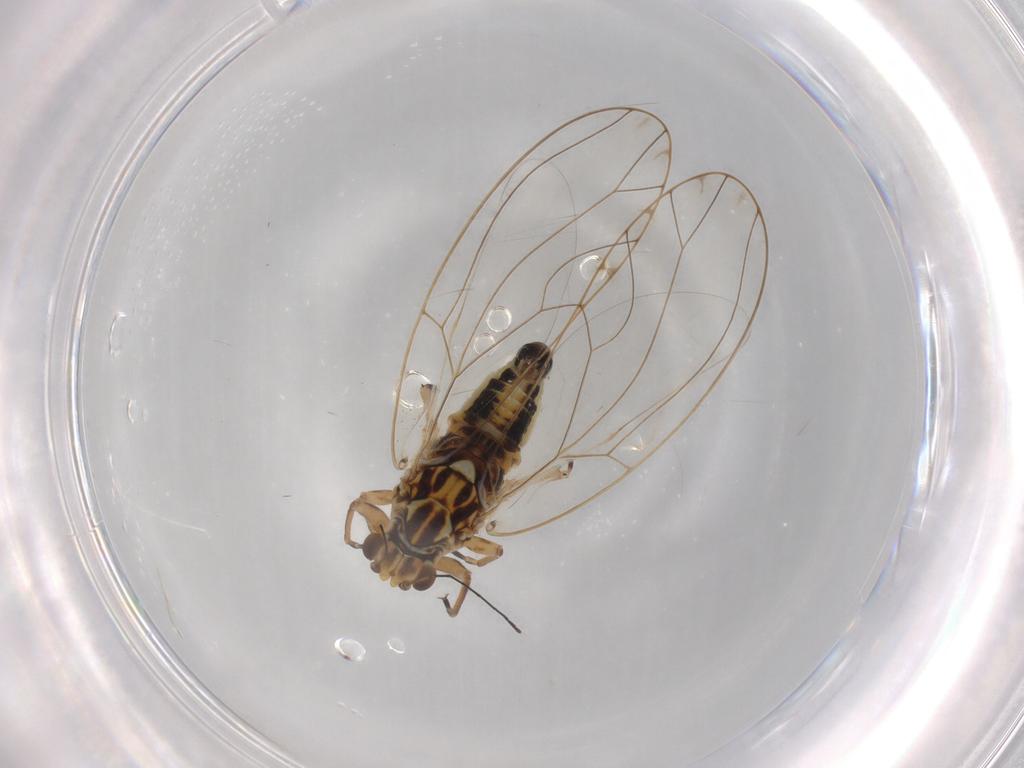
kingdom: Animalia
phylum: Arthropoda
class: Insecta
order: Hemiptera
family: Triozidae
